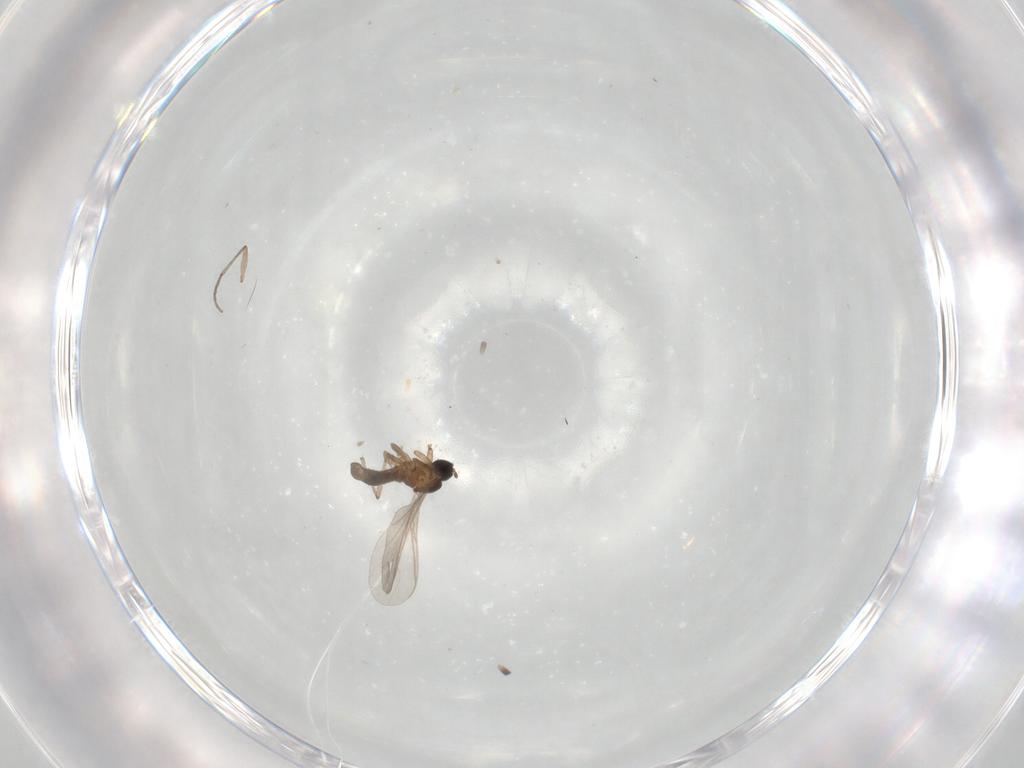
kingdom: Animalia
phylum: Arthropoda
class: Insecta
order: Diptera
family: Sciaridae
